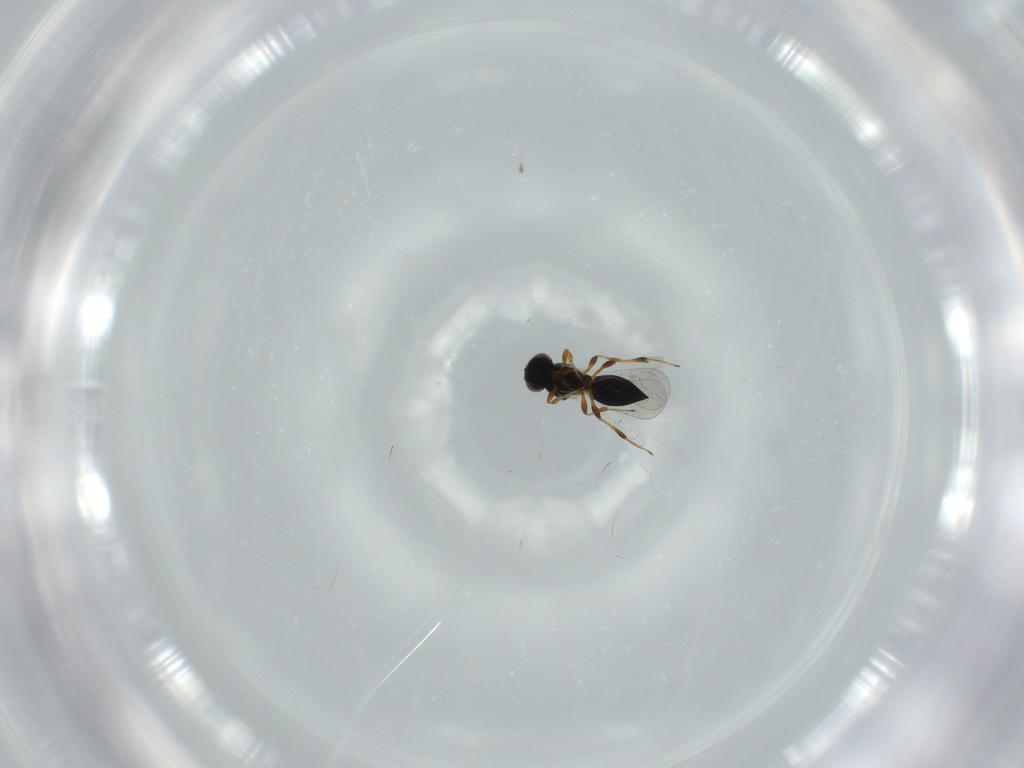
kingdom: Animalia
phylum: Arthropoda
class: Insecta
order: Hymenoptera
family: Platygastridae
